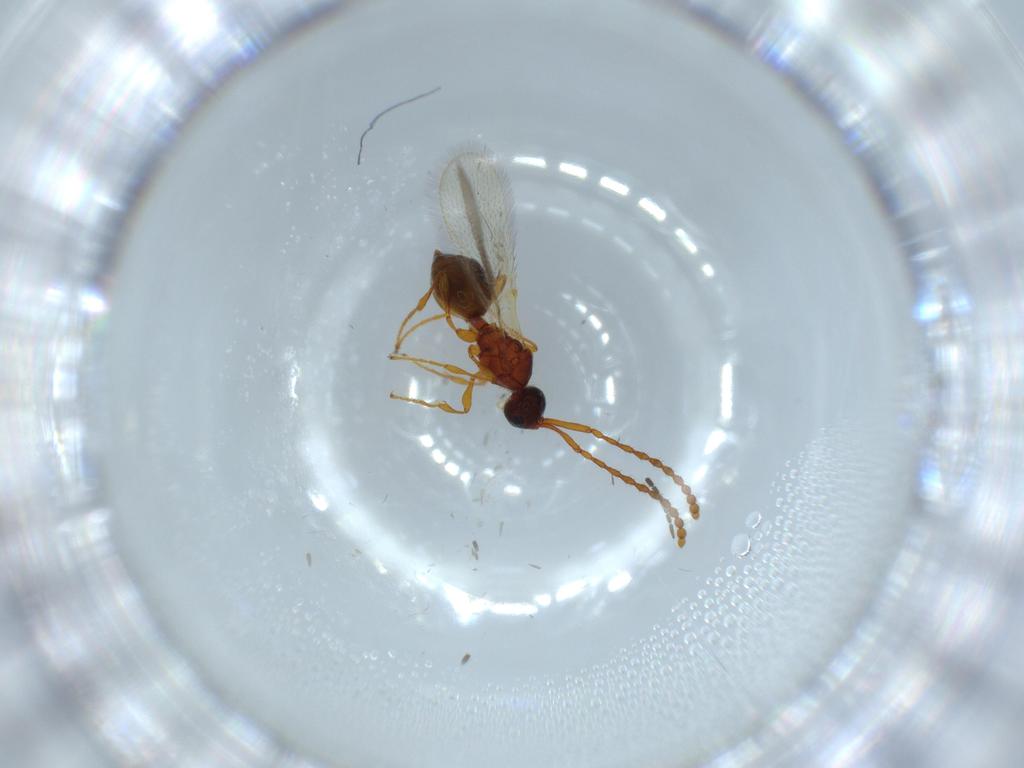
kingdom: Animalia
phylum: Arthropoda
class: Insecta
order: Hymenoptera
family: Diapriidae
